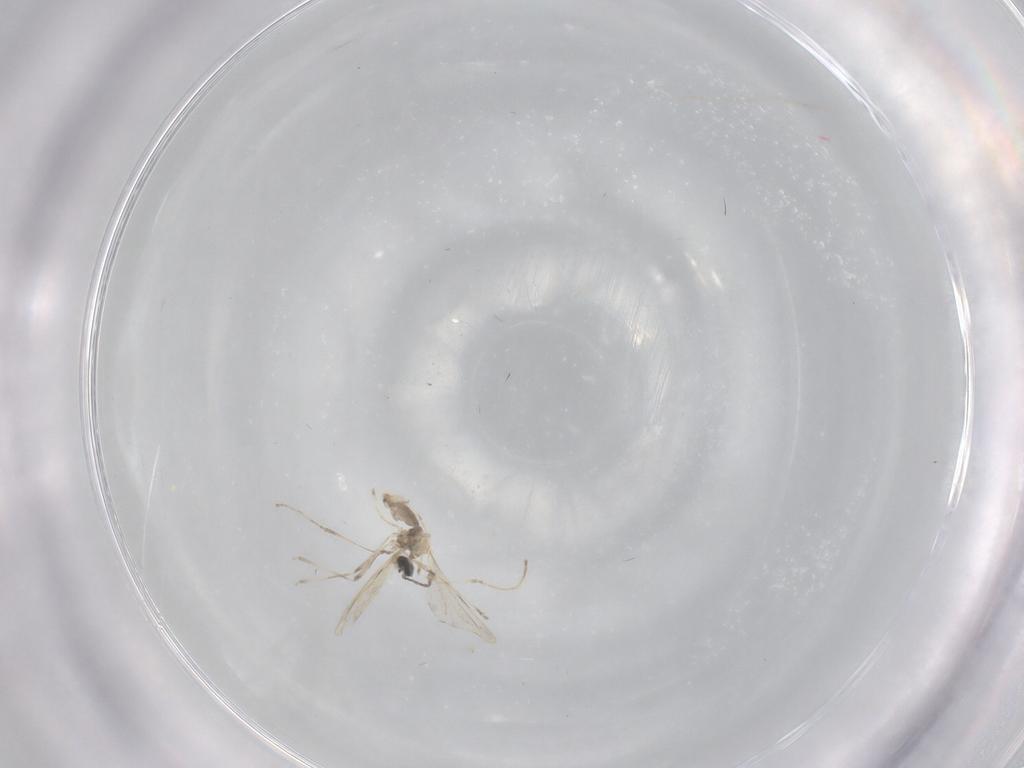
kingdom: Animalia
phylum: Arthropoda
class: Insecta
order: Diptera
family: Cecidomyiidae
